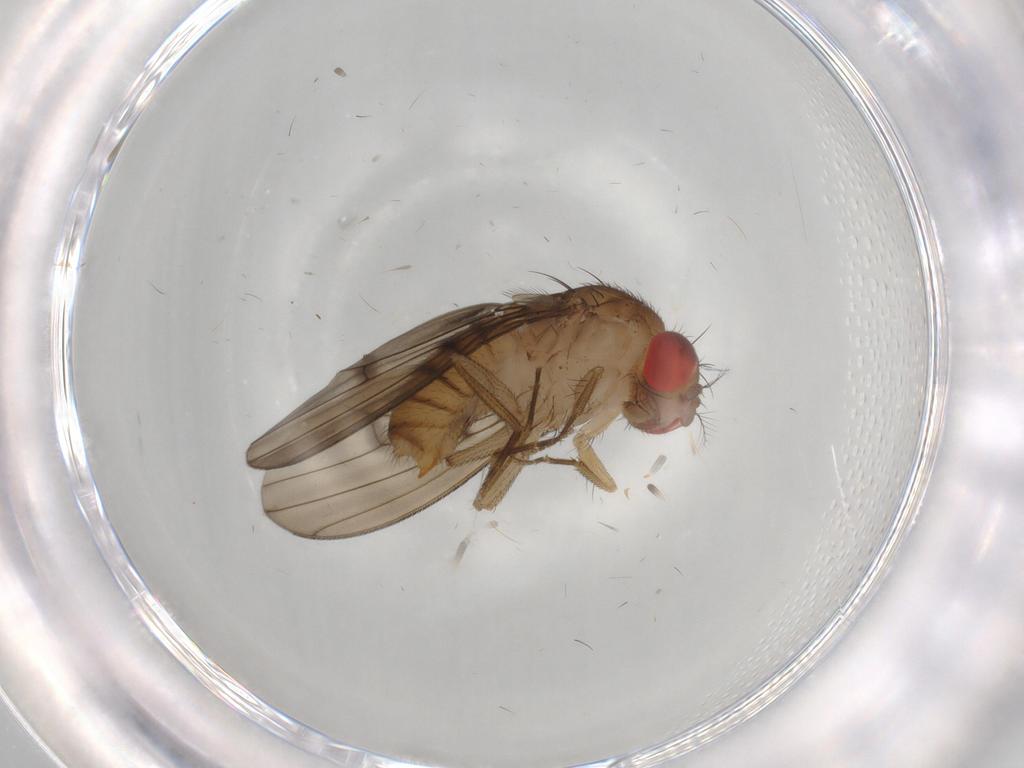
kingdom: Animalia
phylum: Arthropoda
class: Insecta
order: Diptera
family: Drosophilidae
